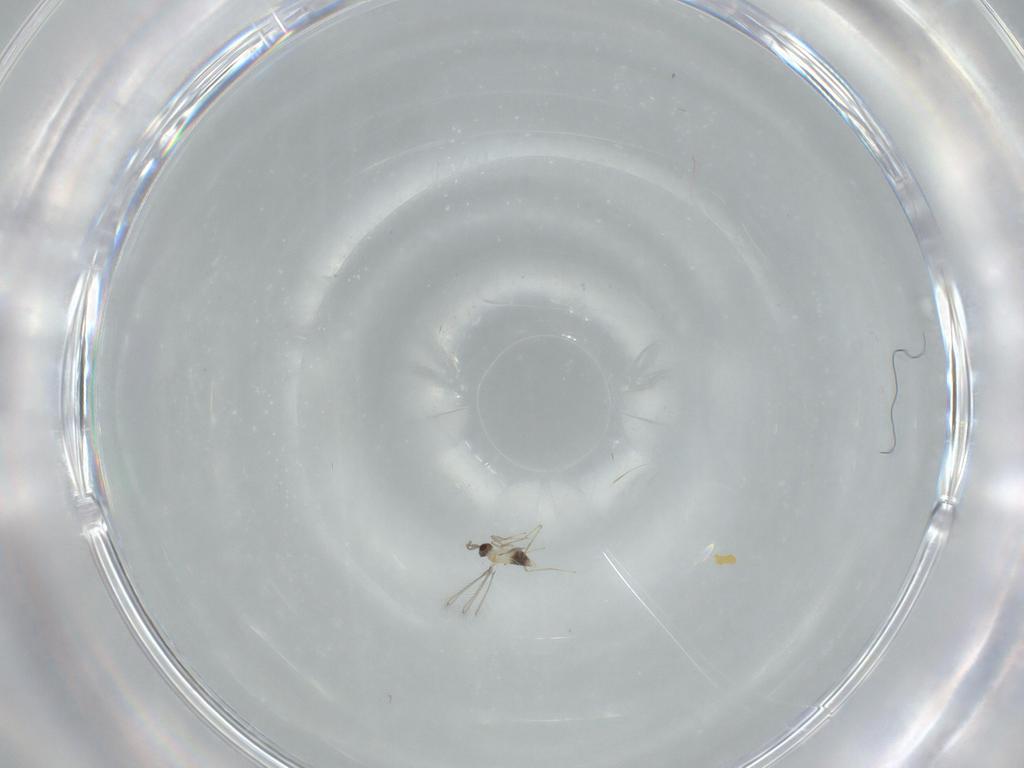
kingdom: Animalia
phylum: Arthropoda
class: Insecta
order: Hymenoptera
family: Mymaridae
